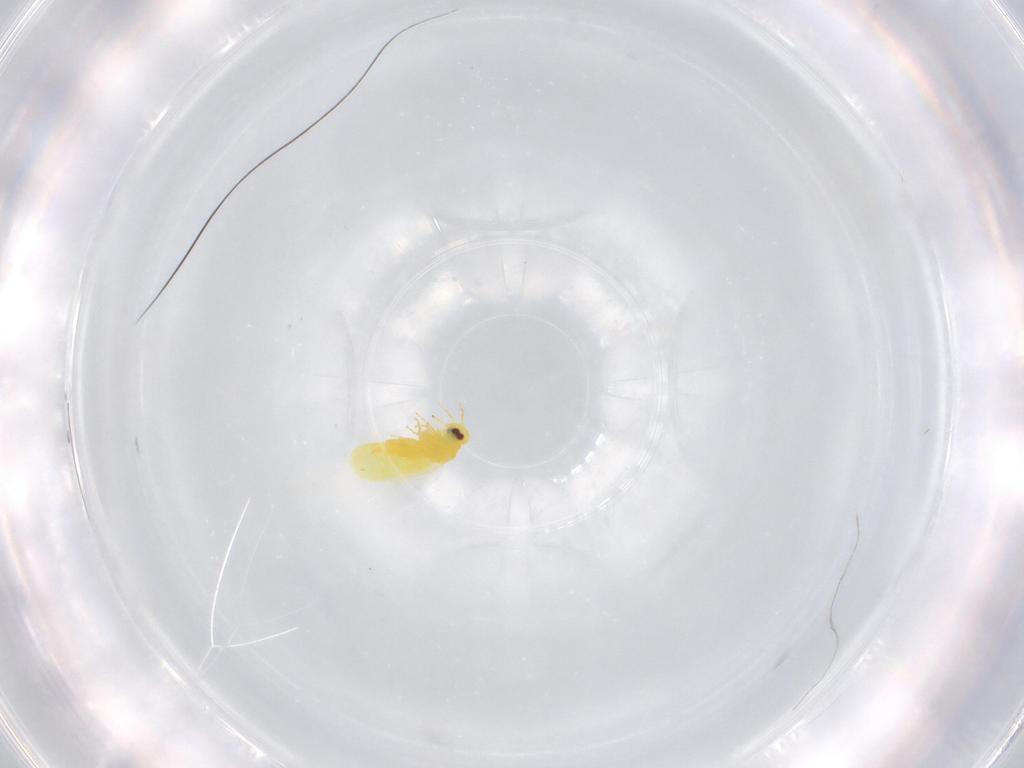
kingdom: Animalia
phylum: Arthropoda
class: Insecta
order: Hemiptera
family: Aleyrodidae
